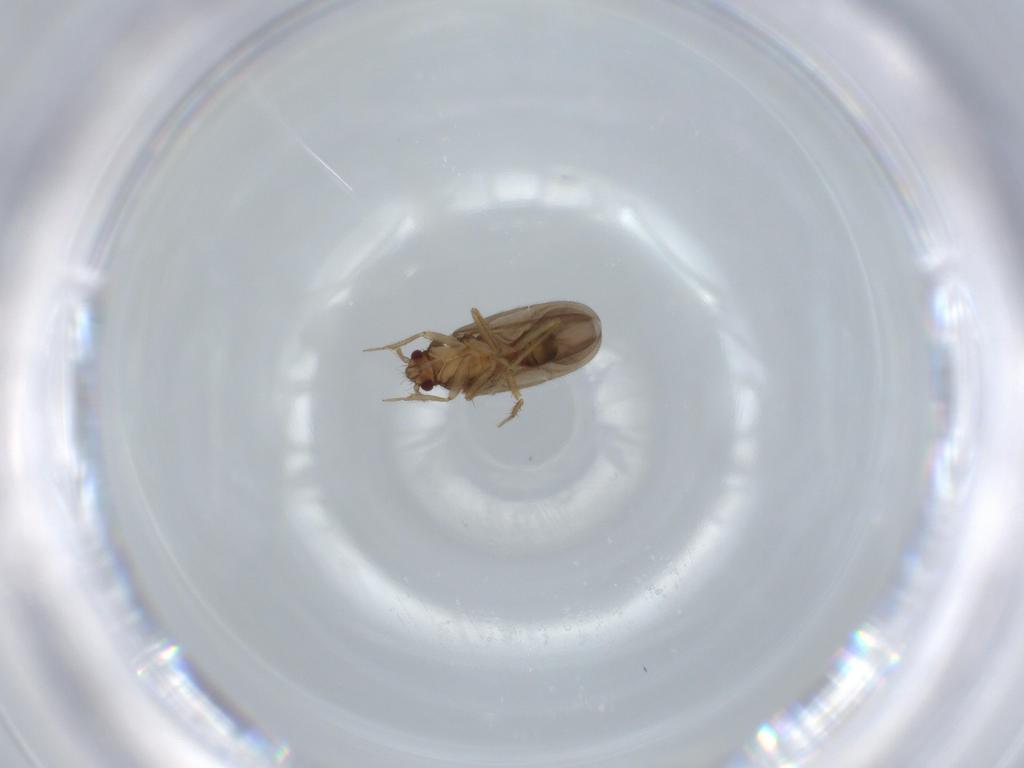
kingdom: Animalia
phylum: Arthropoda
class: Insecta
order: Hemiptera
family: Ceratocombidae
